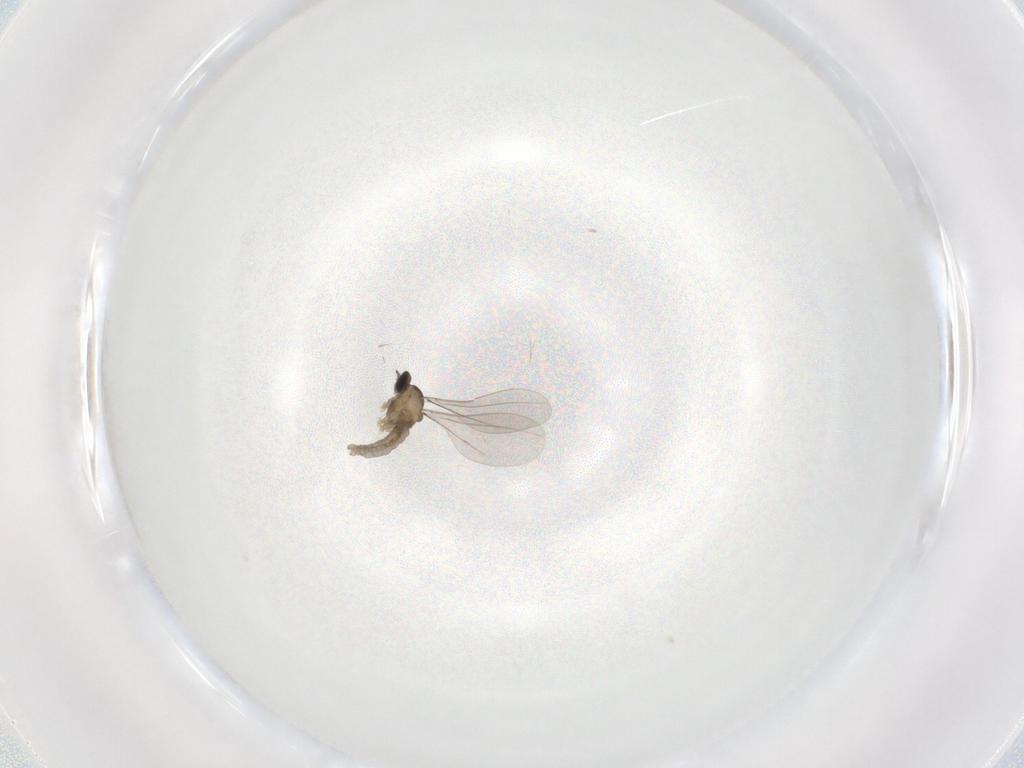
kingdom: Animalia
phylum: Arthropoda
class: Insecta
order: Diptera
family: Cecidomyiidae
